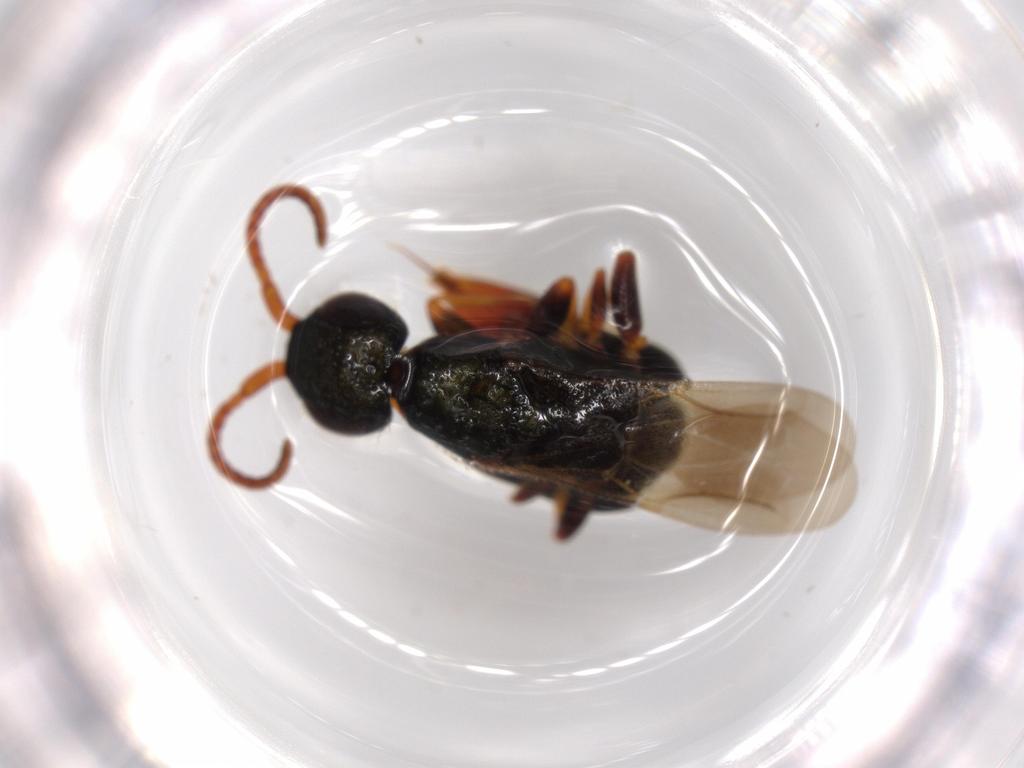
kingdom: Animalia
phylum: Arthropoda
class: Insecta
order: Hymenoptera
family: Bethylidae
